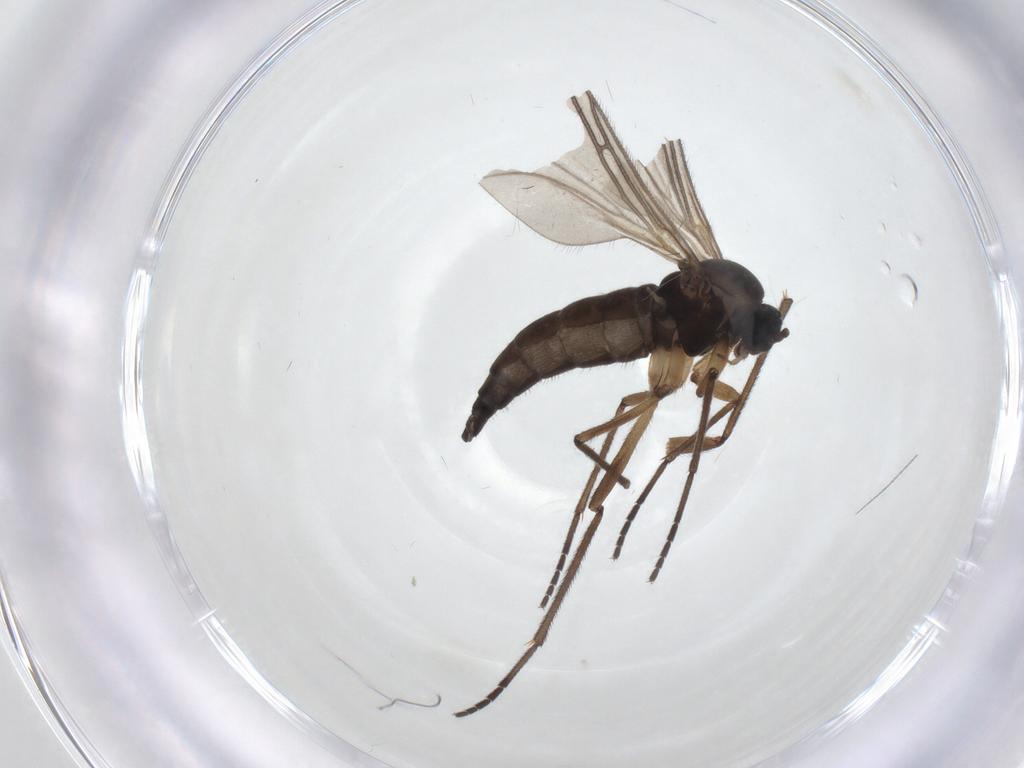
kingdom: Animalia
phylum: Arthropoda
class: Insecta
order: Diptera
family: Sciaridae
